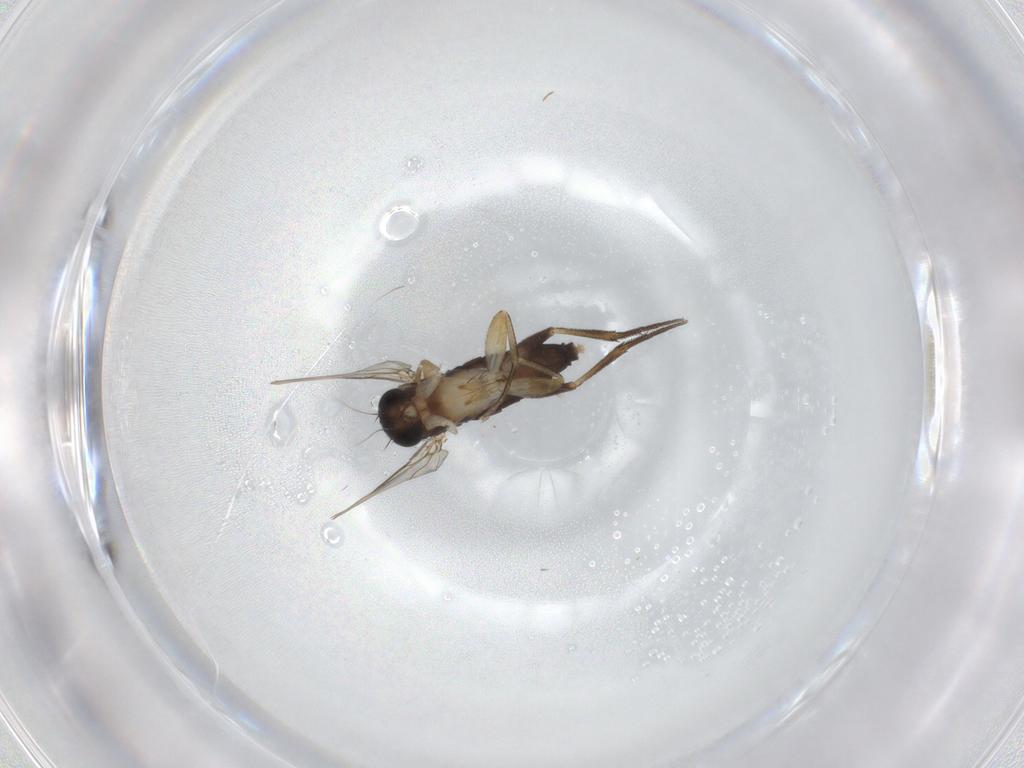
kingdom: Animalia
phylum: Arthropoda
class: Insecta
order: Diptera
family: Phoridae
